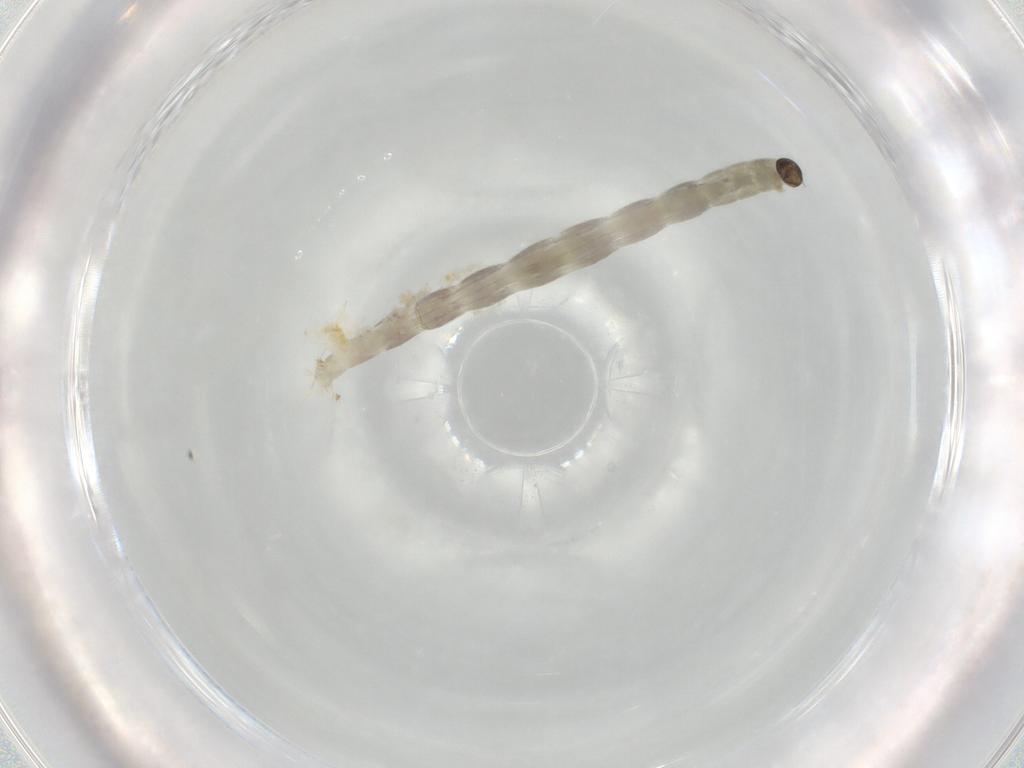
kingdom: Animalia
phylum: Arthropoda
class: Insecta
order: Diptera
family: Chironomidae
